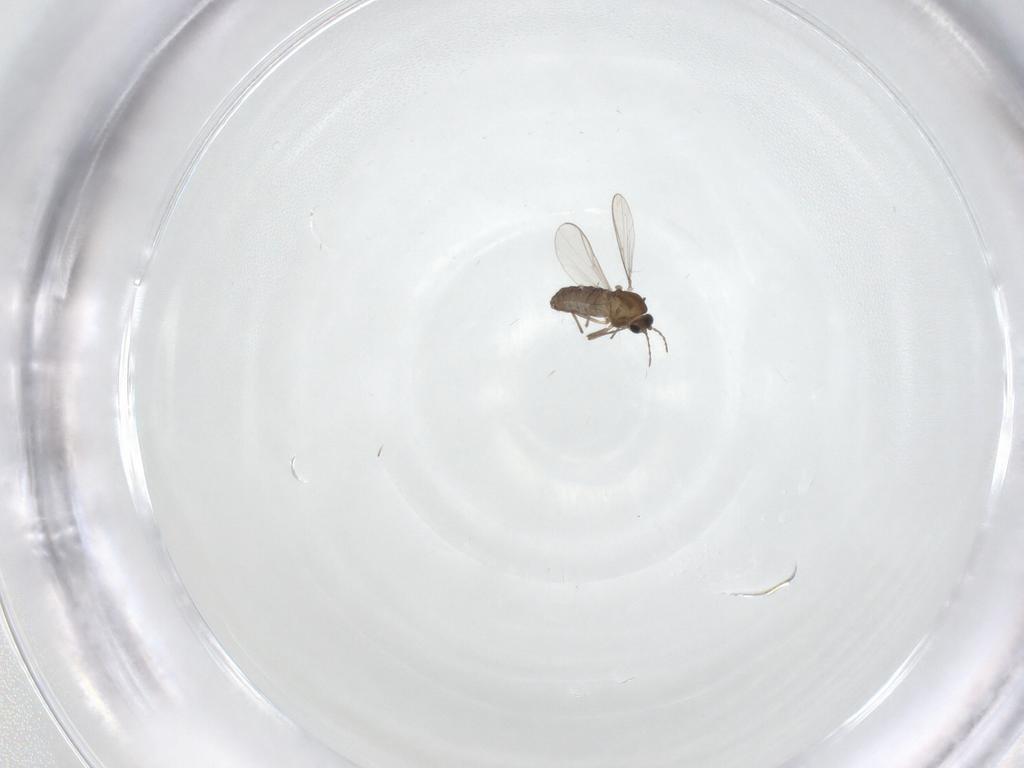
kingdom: Animalia
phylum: Arthropoda
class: Insecta
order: Diptera
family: Chironomidae
